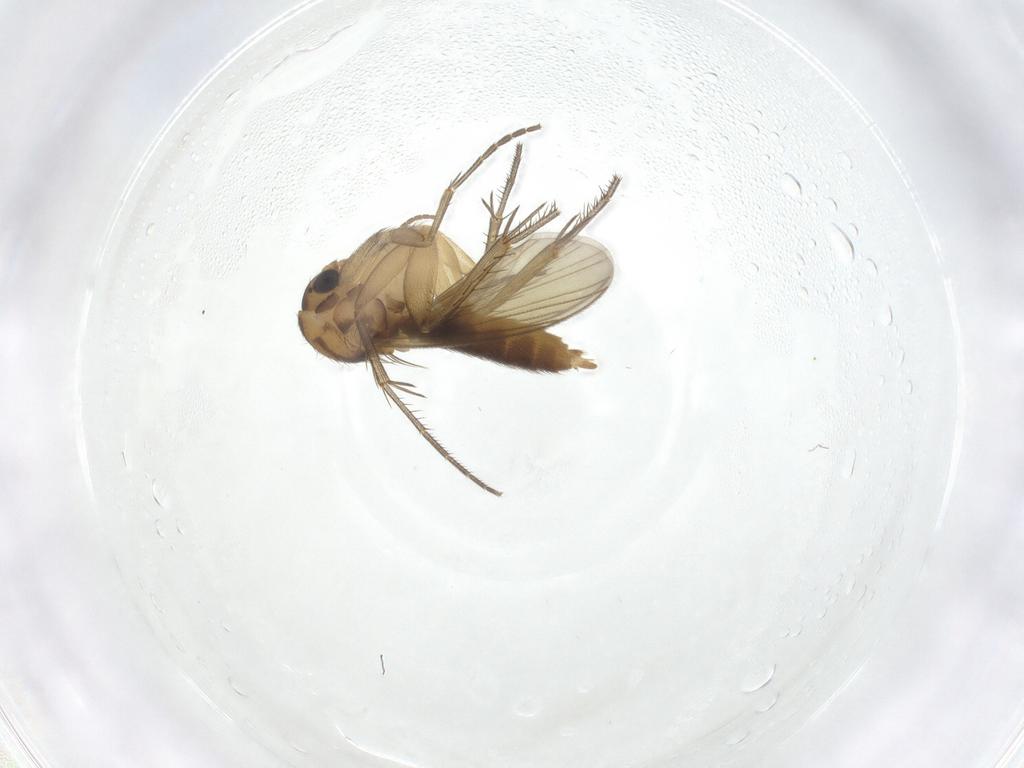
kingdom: Animalia
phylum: Arthropoda
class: Insecta
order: Diptera
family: Mycetophilidae
